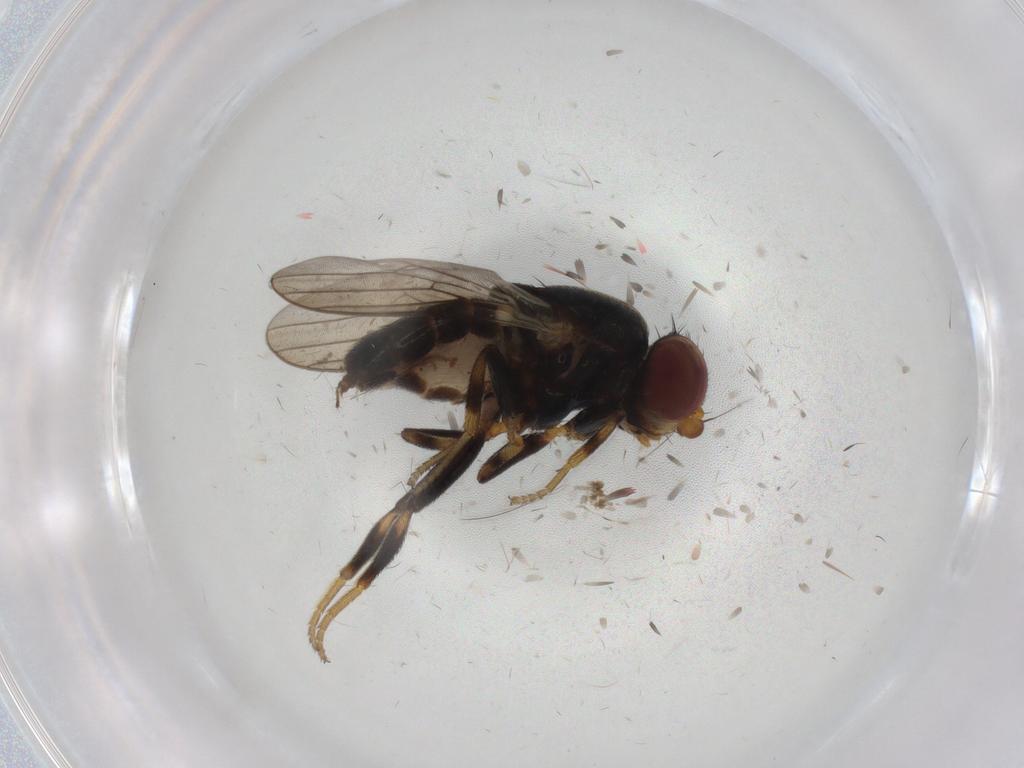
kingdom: Animalia
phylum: Arthropoda
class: Insecta
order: Diptera
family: Chloropidae
